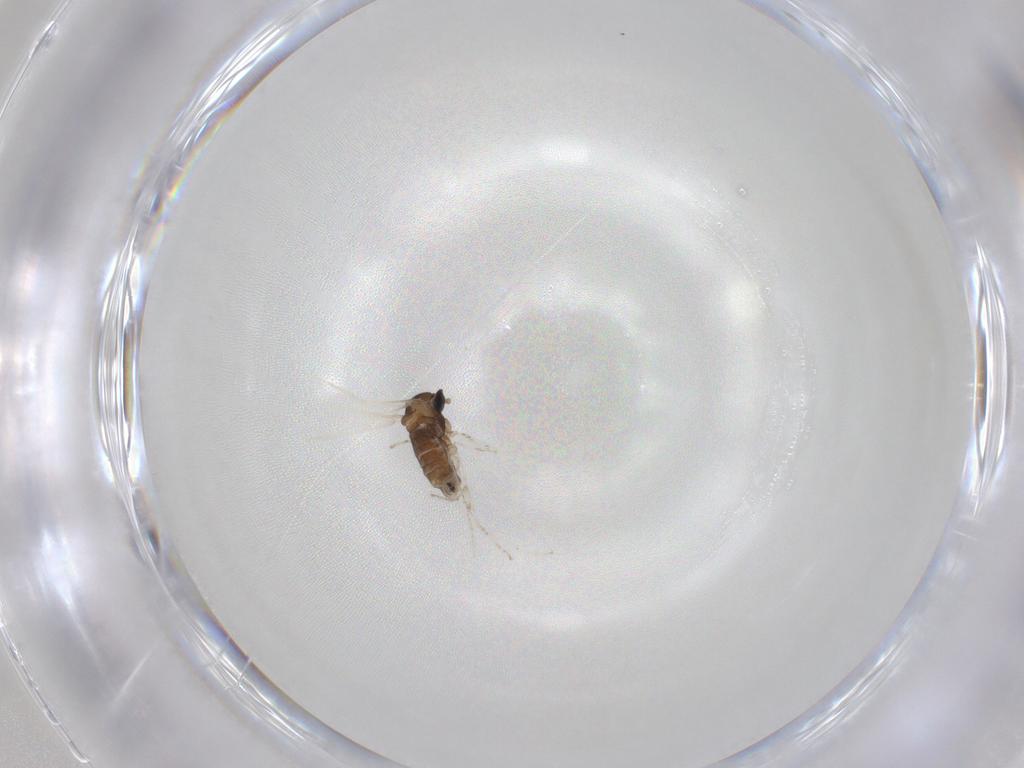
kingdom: Animalia
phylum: Arthropoda
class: Insecta
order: Diptera
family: Cecidomyiidae
